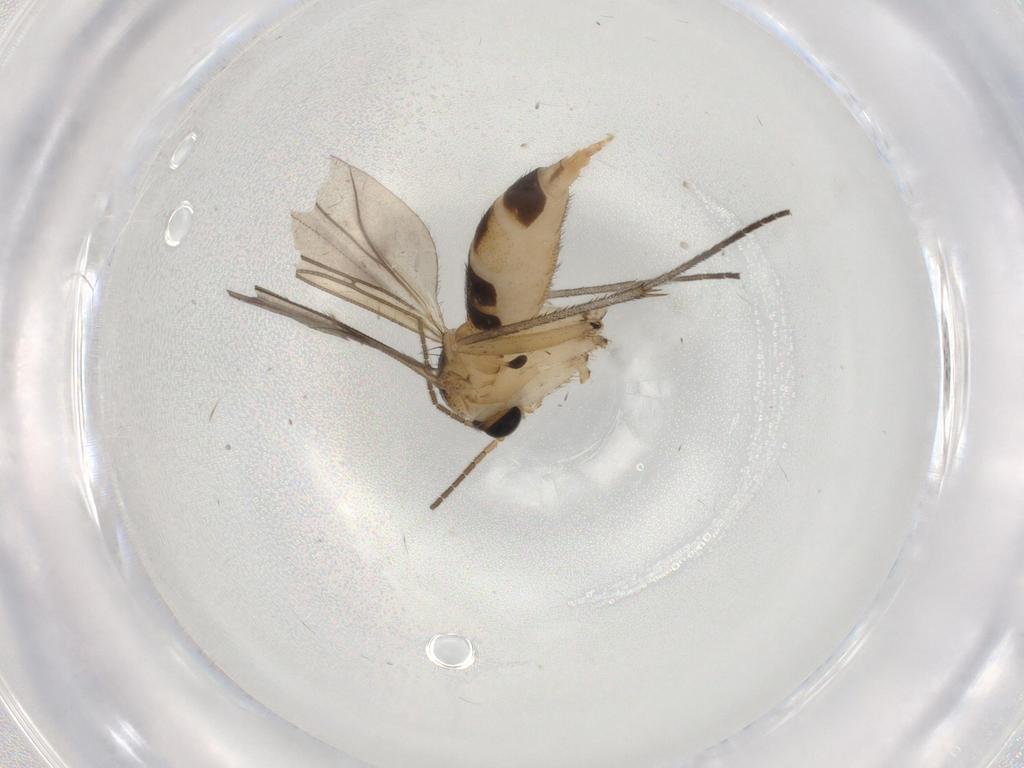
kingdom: Animalia
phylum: Arthropoda
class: Insecta
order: Diptera
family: Sciaridae
